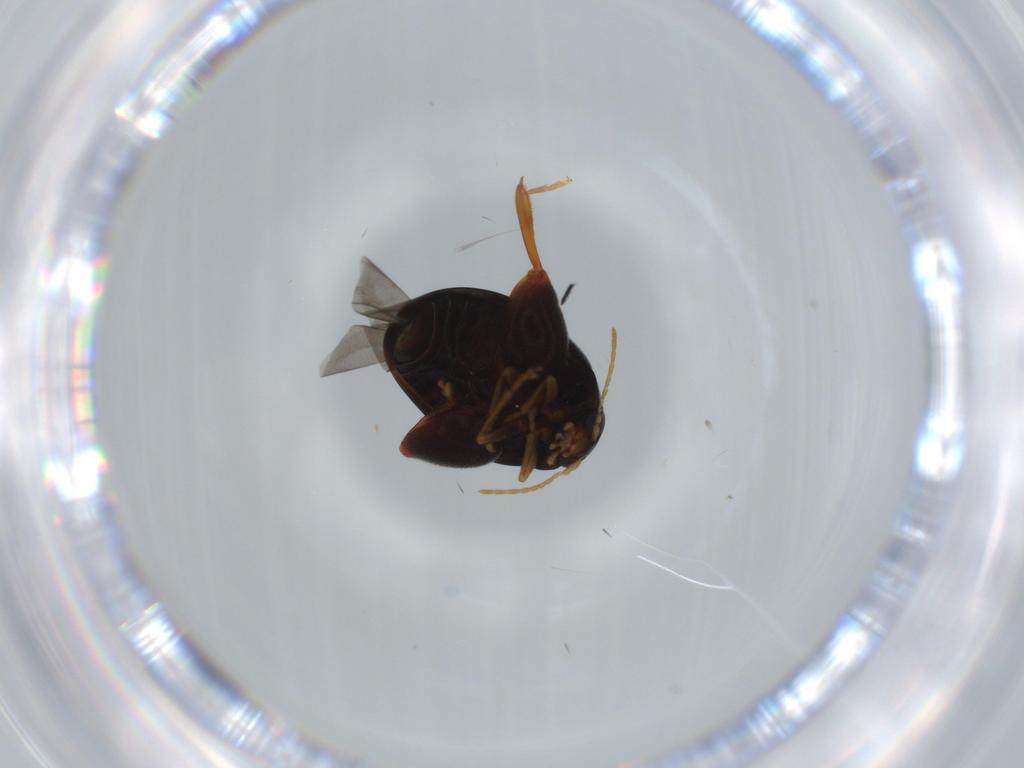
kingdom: Animalia
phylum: Arthropoda
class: Insecta
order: Coleoptera
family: Chrysomelidae
